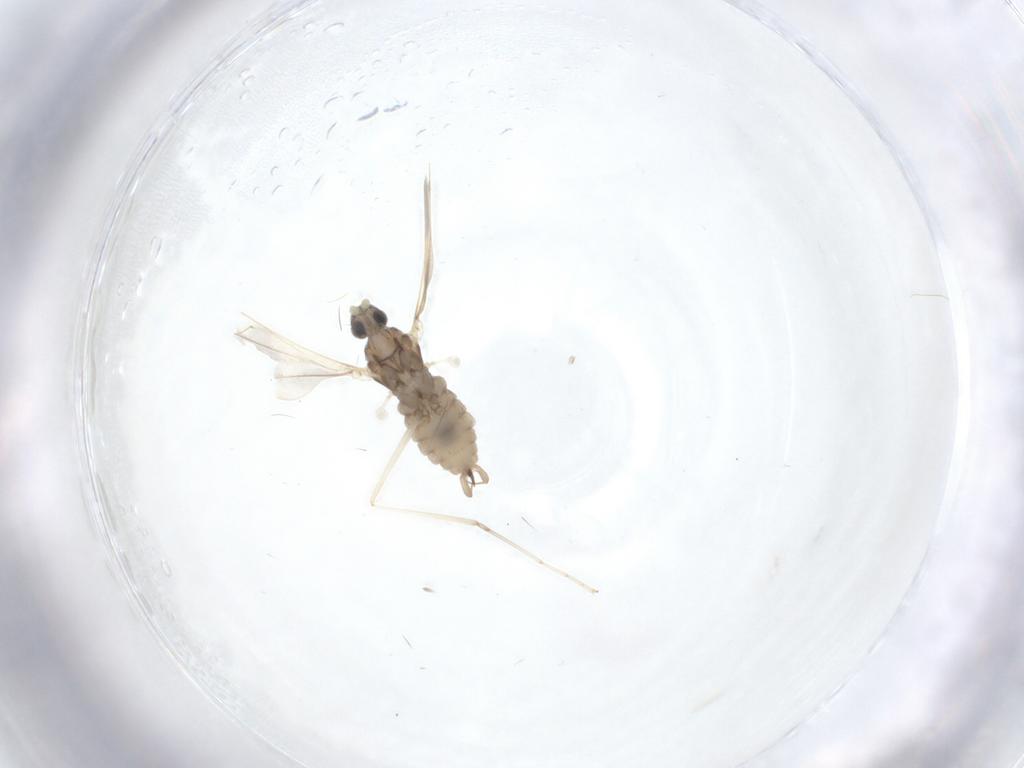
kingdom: Animalia
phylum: Arthropoda
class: Insecta
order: Diptera
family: Cecidomyiidae
